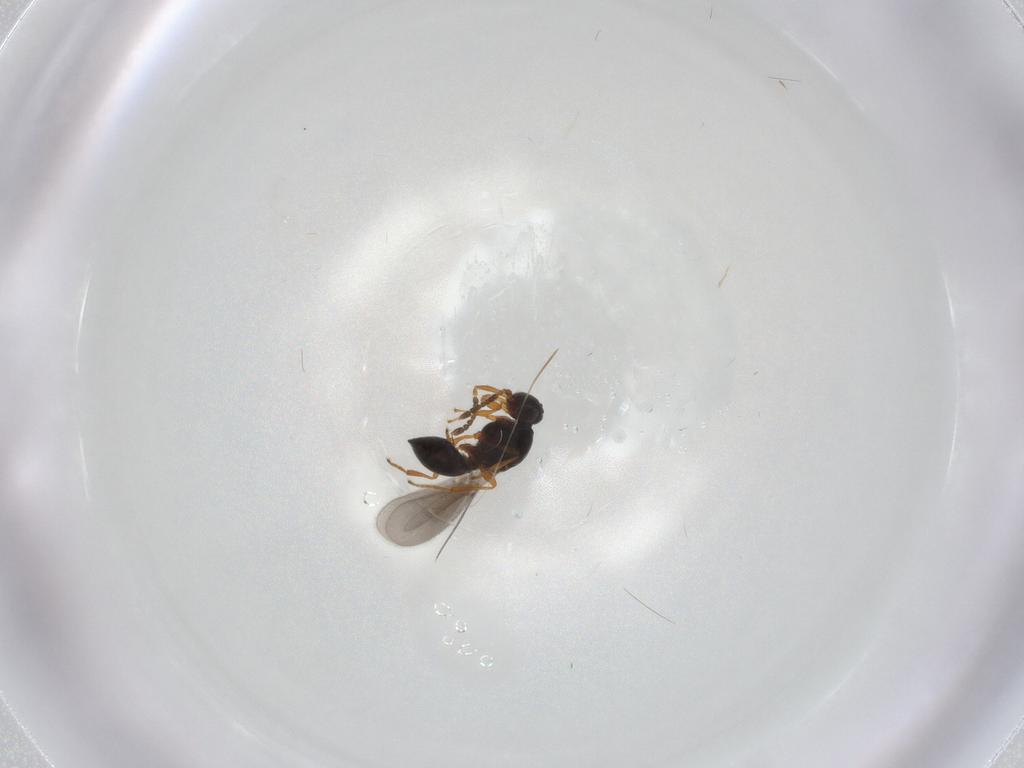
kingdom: Animalia
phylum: Arthropoda
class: Insecta
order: Hymenoptera
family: Platygastridae
